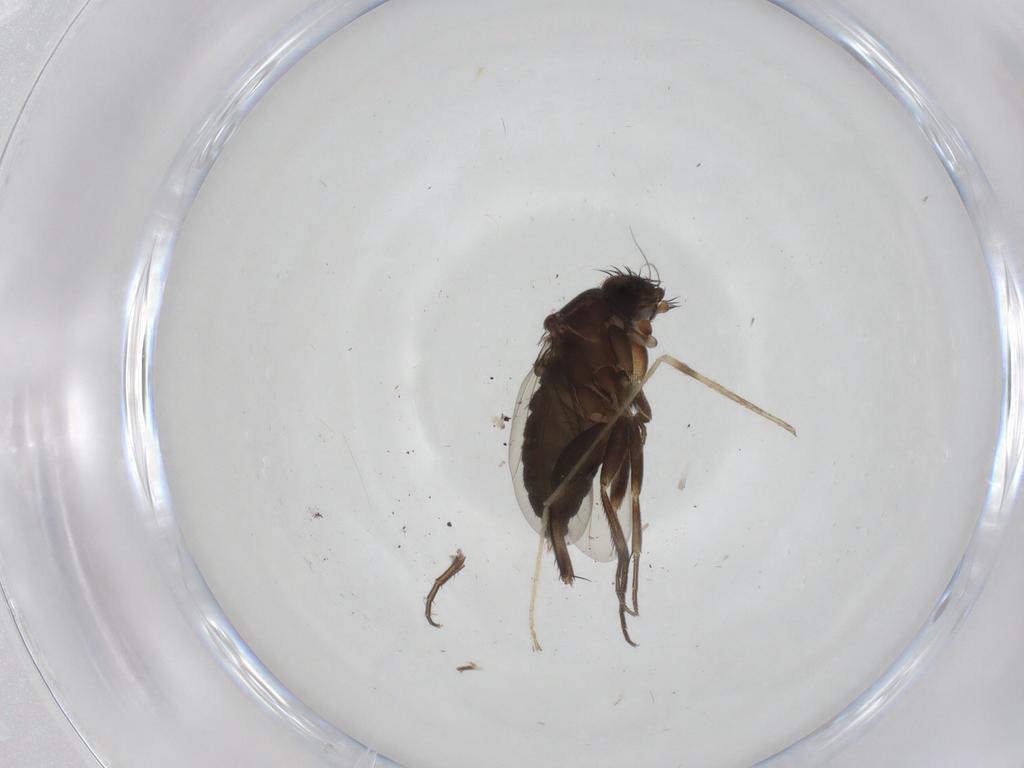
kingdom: Animalia
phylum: Arthropoda
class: Insecta
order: Diptera
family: Phoridae
